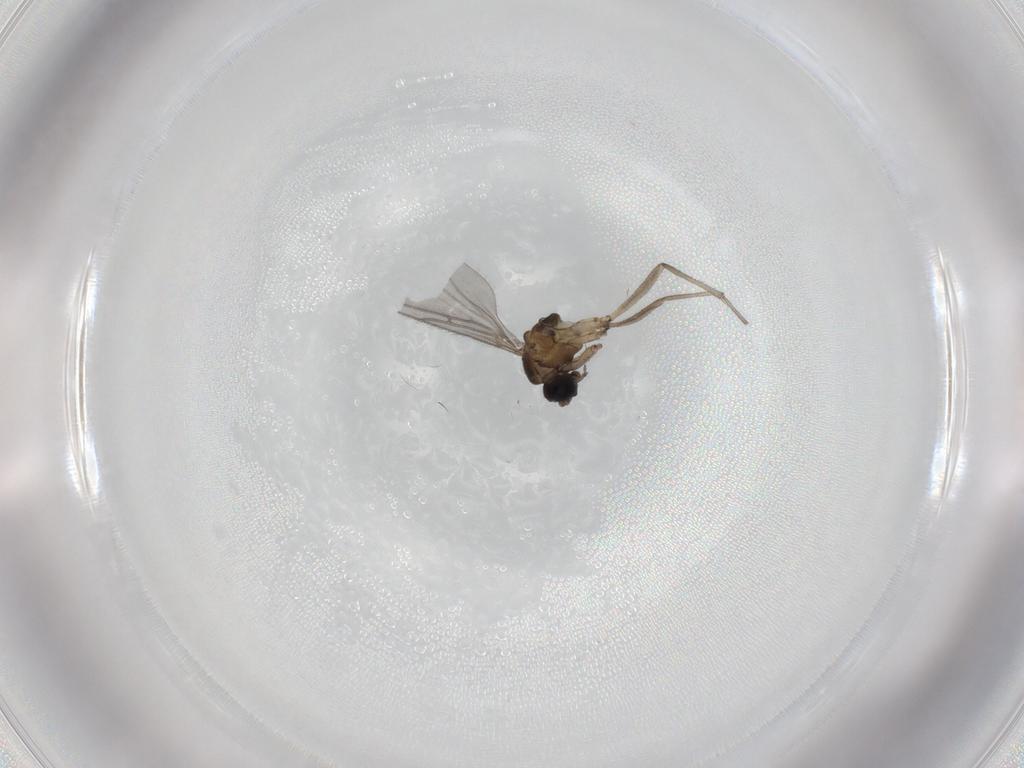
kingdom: Animalia
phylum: Arthropoda
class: Insecta
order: Diptera
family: Sciaridae
